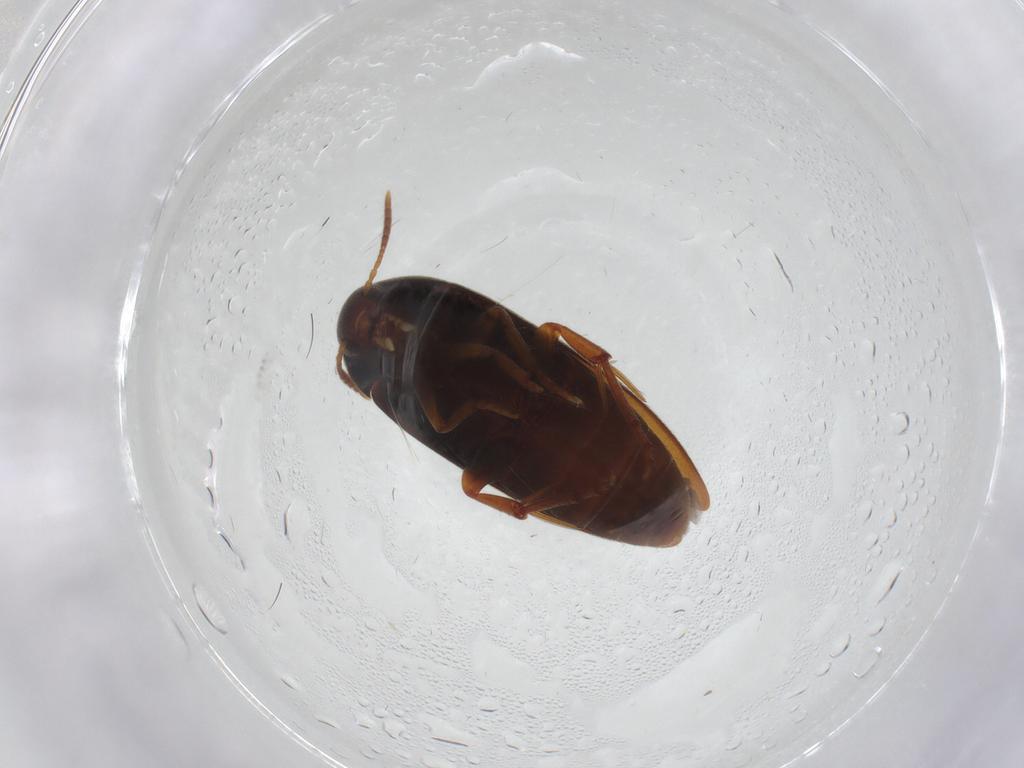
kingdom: Animalia
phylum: Arthropoda
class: Insecta
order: Coleoptera
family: Melandryidae
